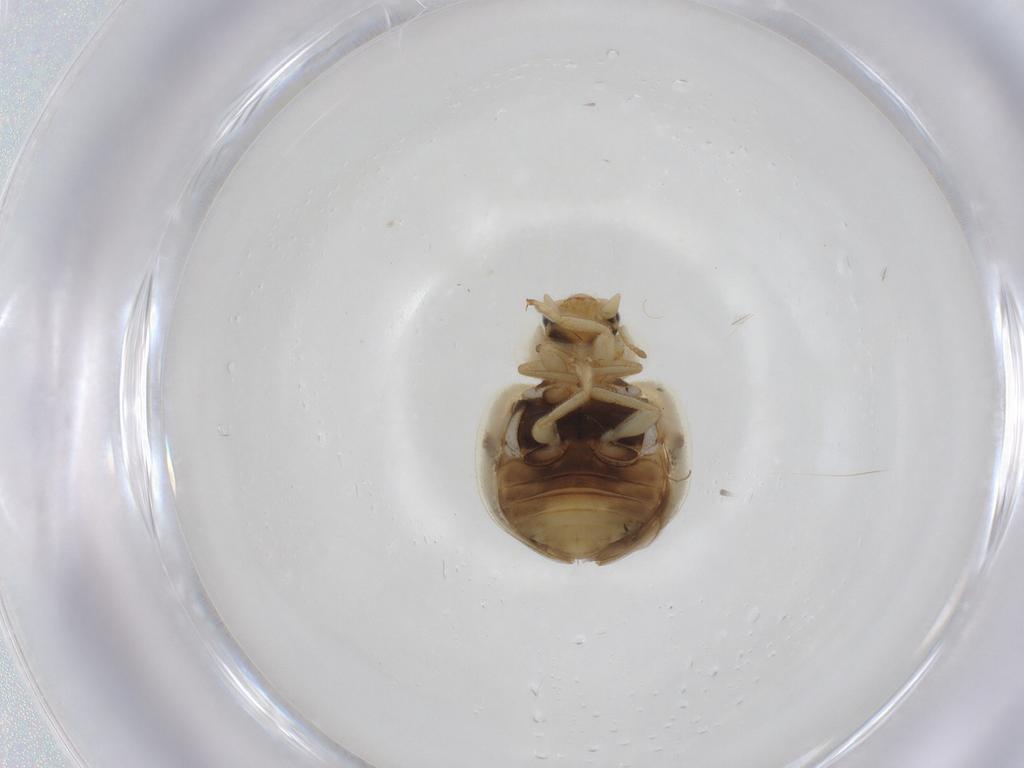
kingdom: Animalia
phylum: Arthropoda
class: Insecta
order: Coleoptera
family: Coccinellidae
